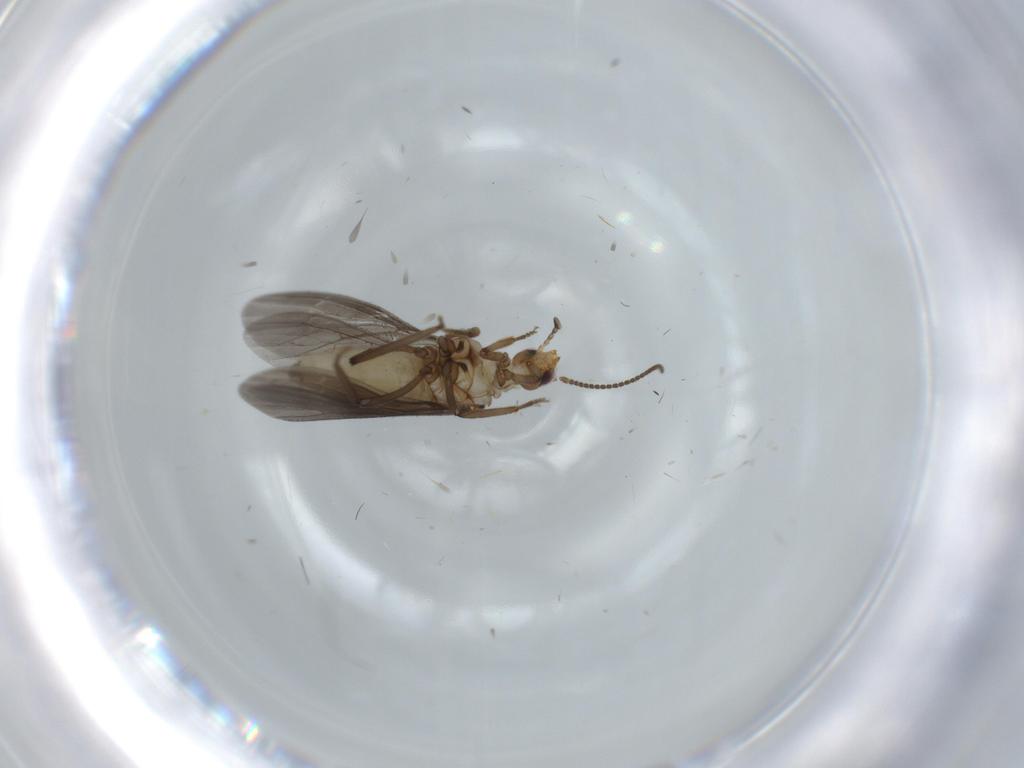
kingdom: Animalia
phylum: Arthropoda
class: Insecta
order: Neuroptera
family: Coniopterygidae
